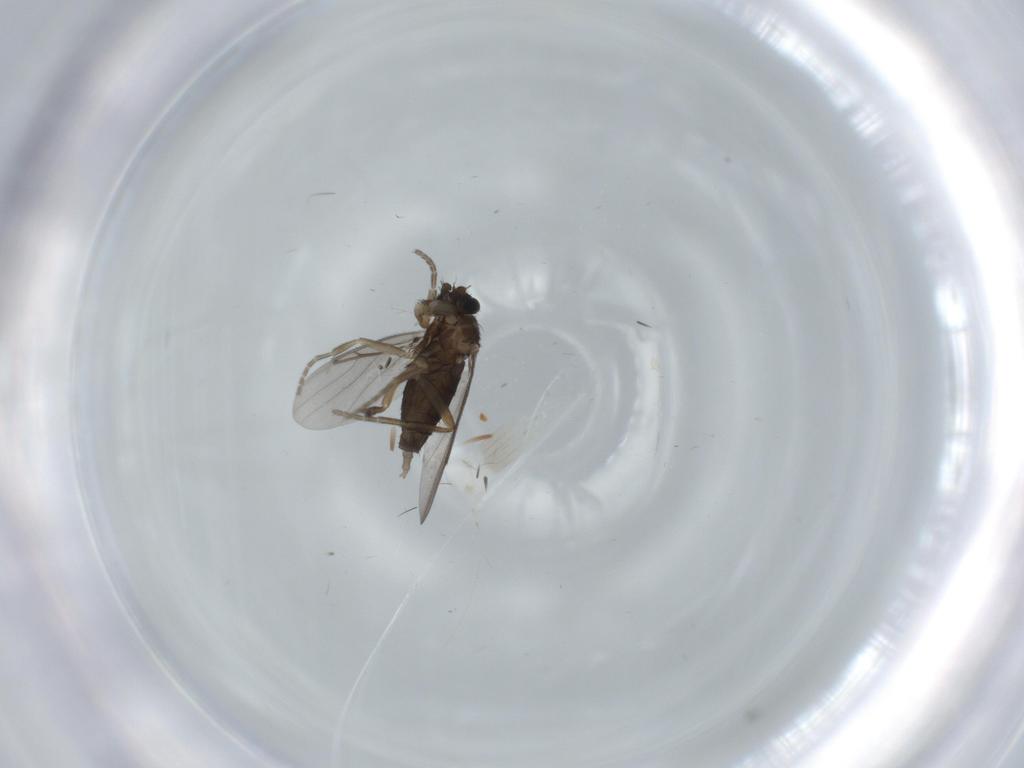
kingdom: Animalia
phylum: Arthropoda
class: Insecta
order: Diptera
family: Phoridae
